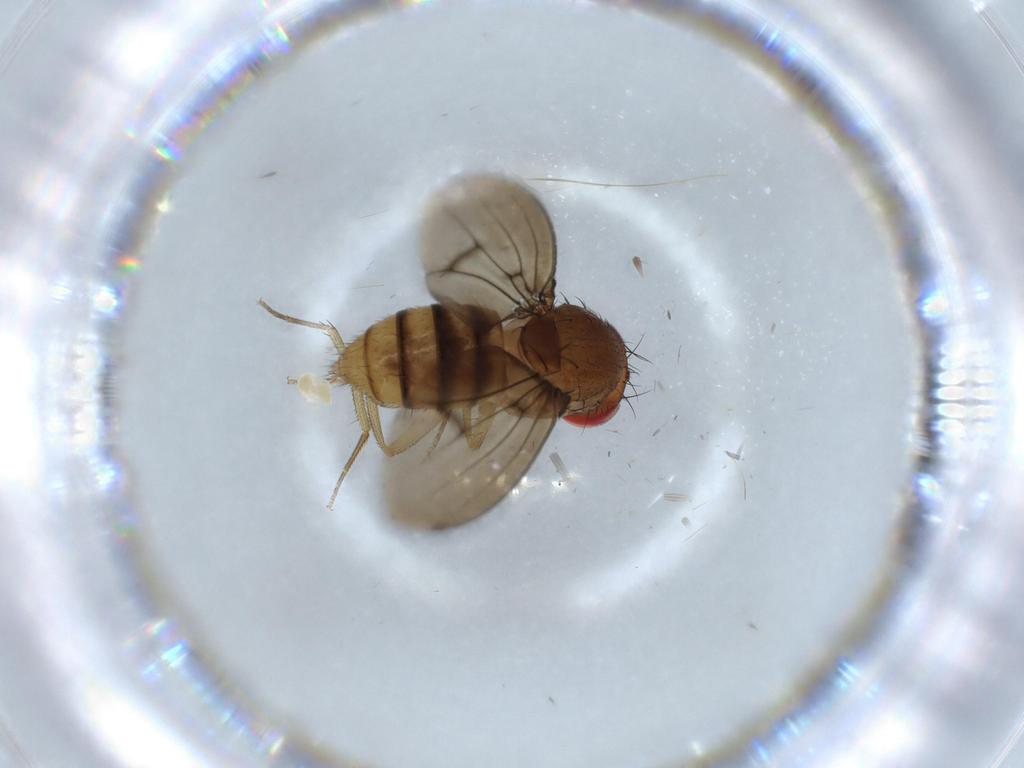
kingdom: Animalia
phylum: Arthropoda
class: Insecta
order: Diptera
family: Drosophilidae
